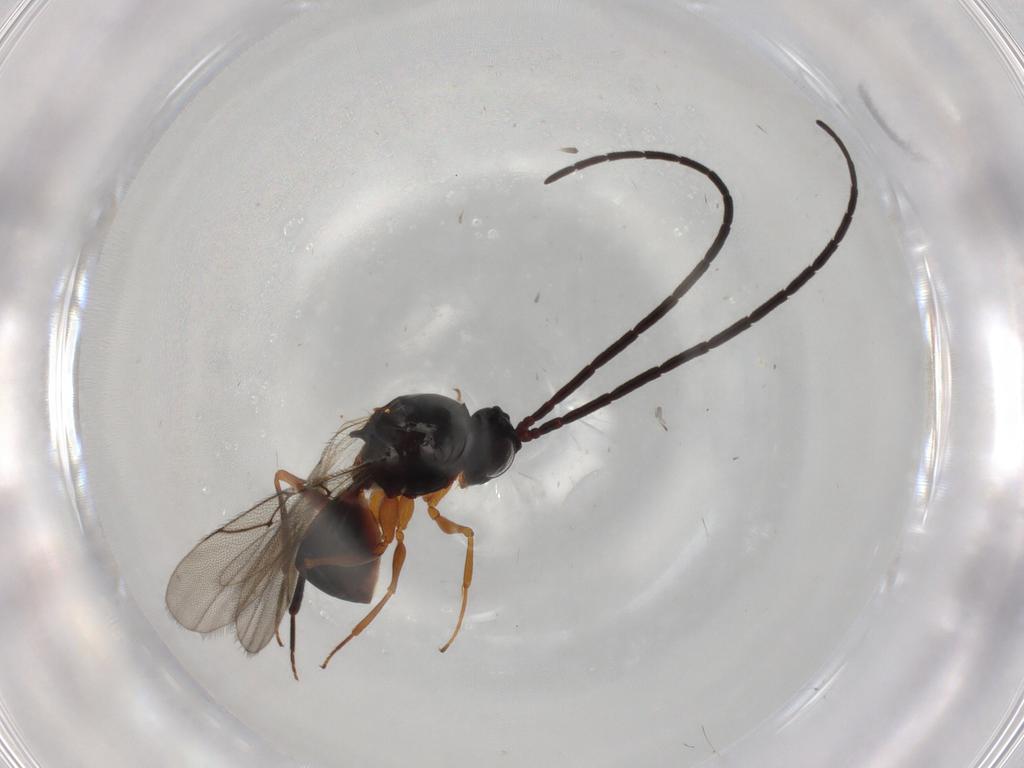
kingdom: Animalia
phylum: Arthropoda
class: Insecta
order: Hymenoptera
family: Figitidae
